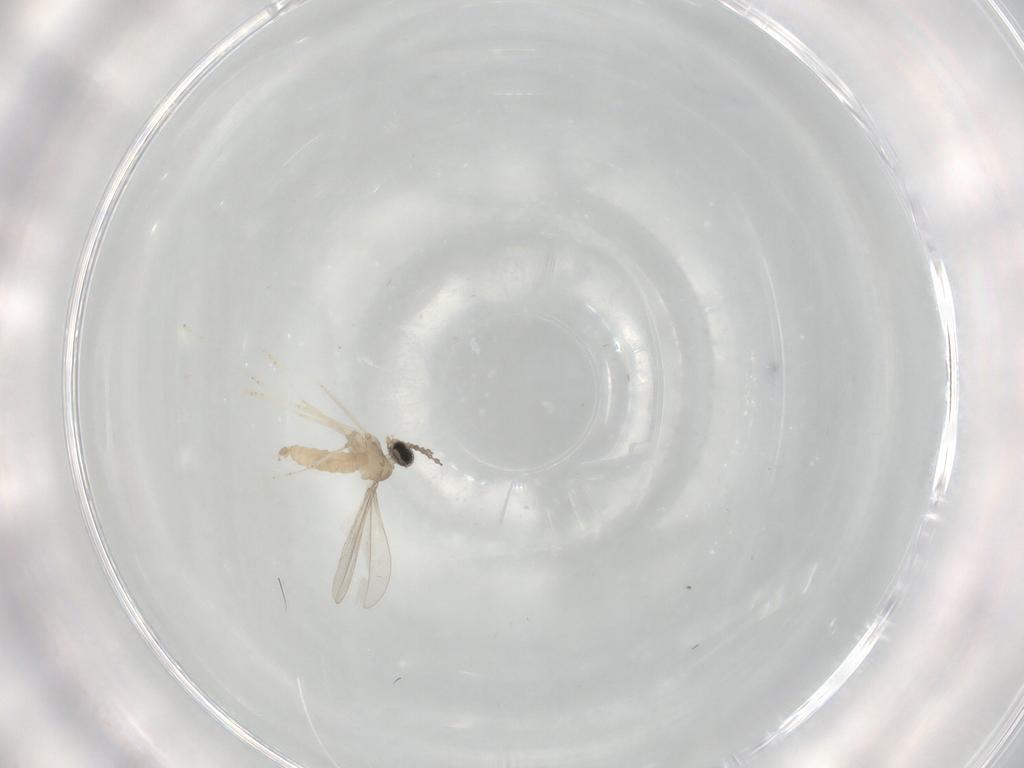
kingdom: Animalia
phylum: Arthropoda
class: Insecta
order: Diptera
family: Cecidomyiidae
